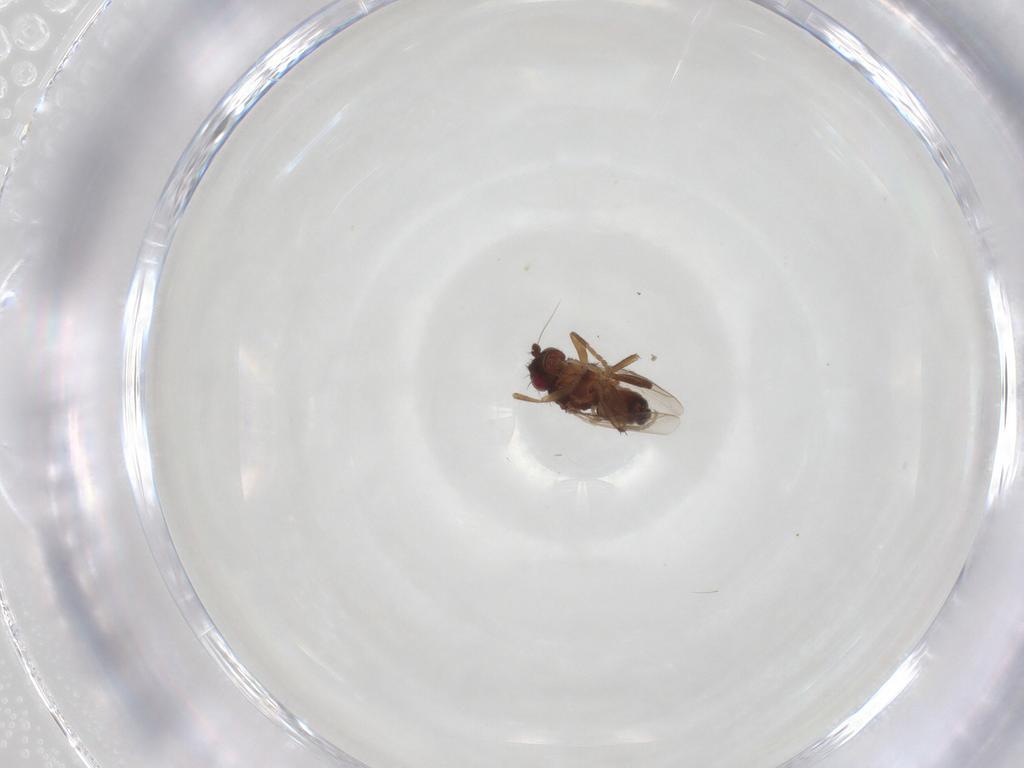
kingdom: Animalia
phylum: Arthropoda
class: Insecta
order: Diptera
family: Sphaeroceridae
